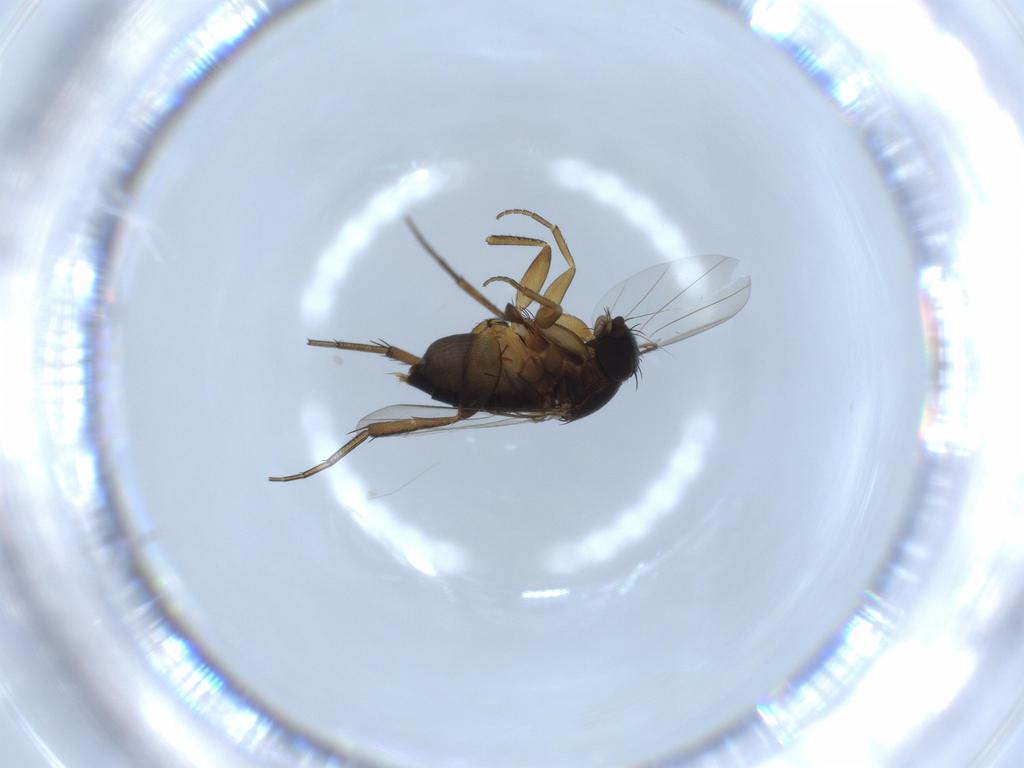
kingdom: Animalia
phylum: Arthropoda
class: Insecta
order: Diptera
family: Phoridae
